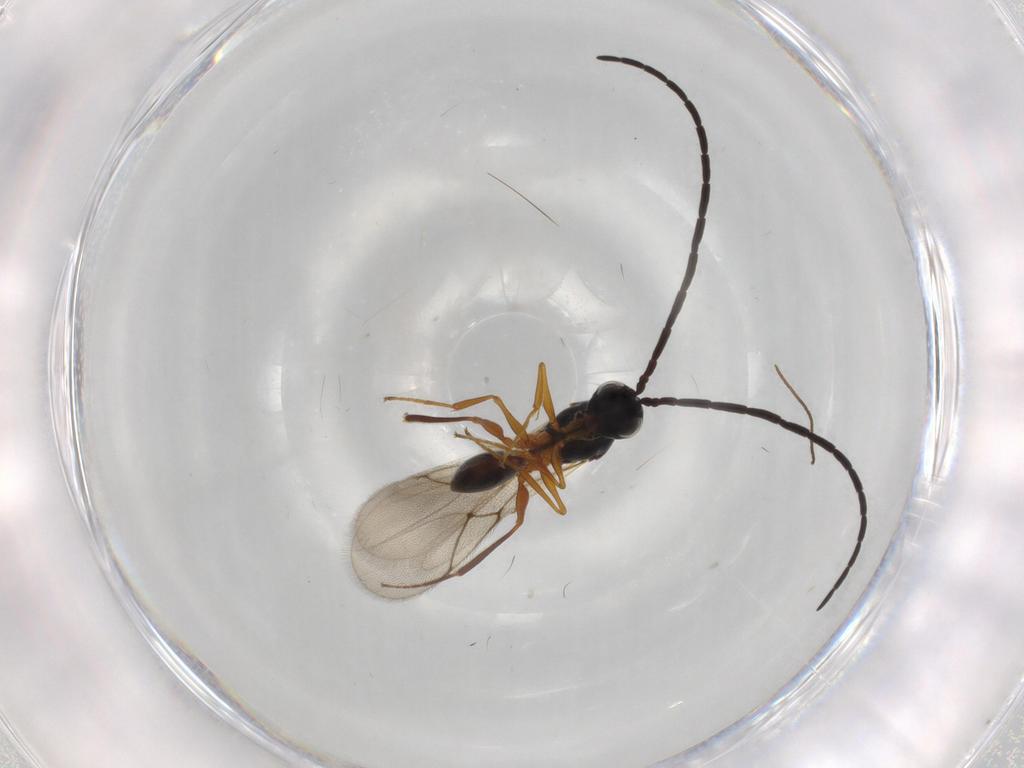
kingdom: Animalia
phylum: Arthropoda
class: Insecta
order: Hymenoptera
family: Figitidae
